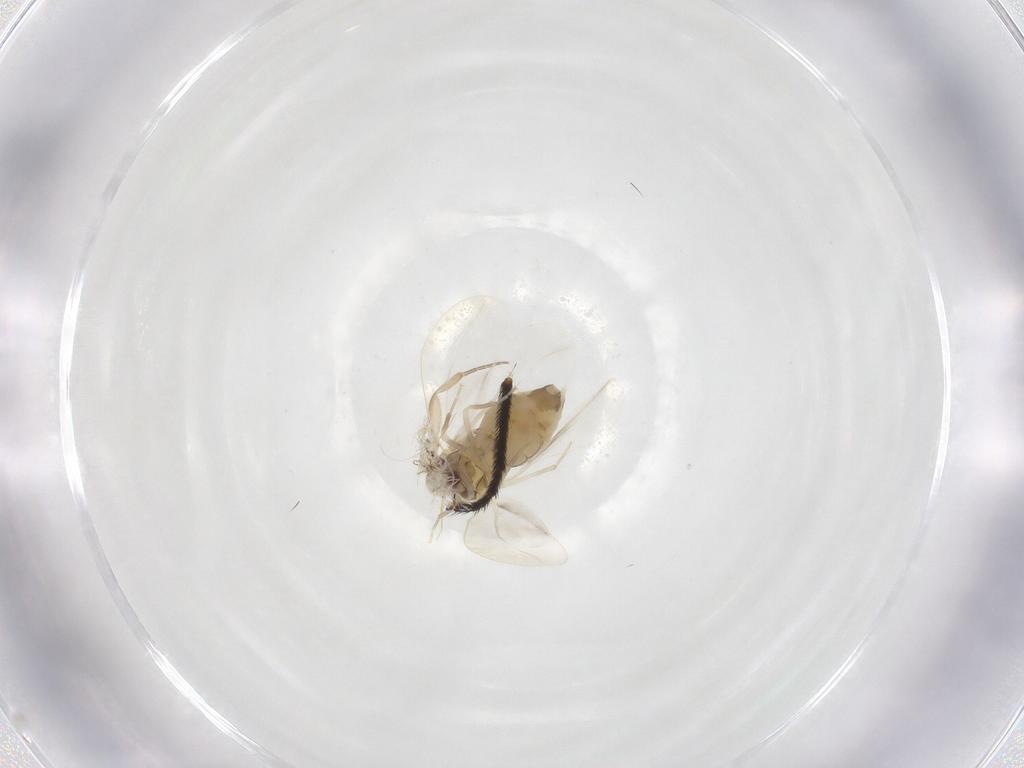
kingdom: Animalia
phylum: Arthropoda
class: Insecta
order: Hemiptera
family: Aleyrodidae
